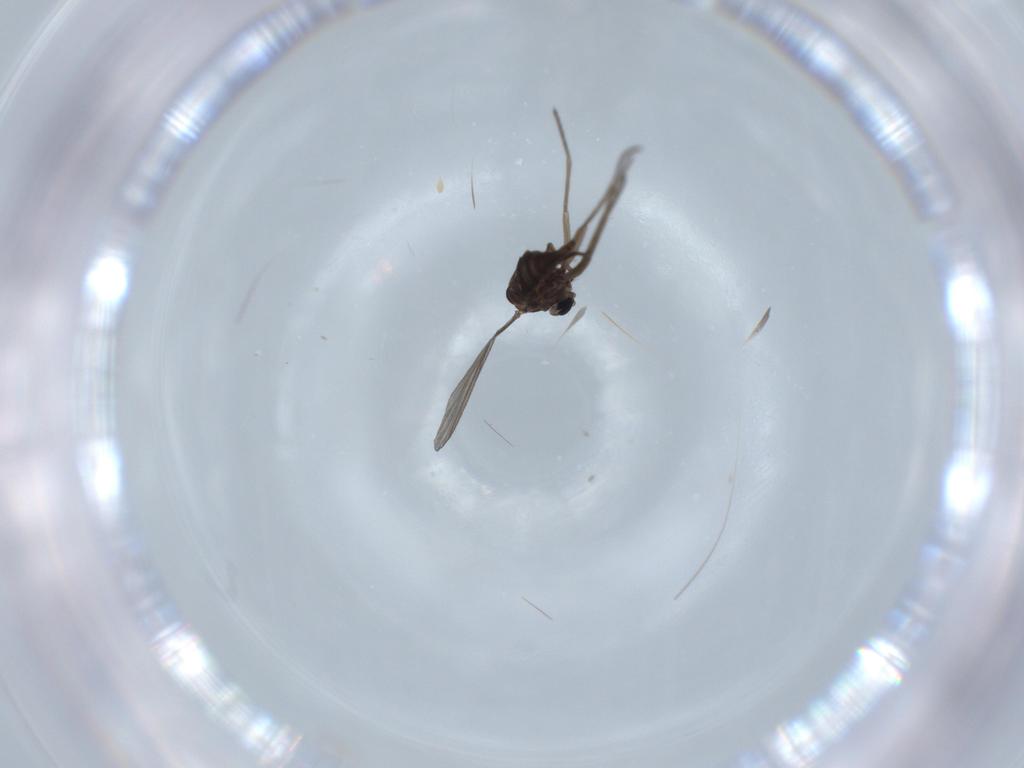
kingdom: Animalia
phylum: Arthropoda
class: Insecta
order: Diptera
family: Sciaridae
